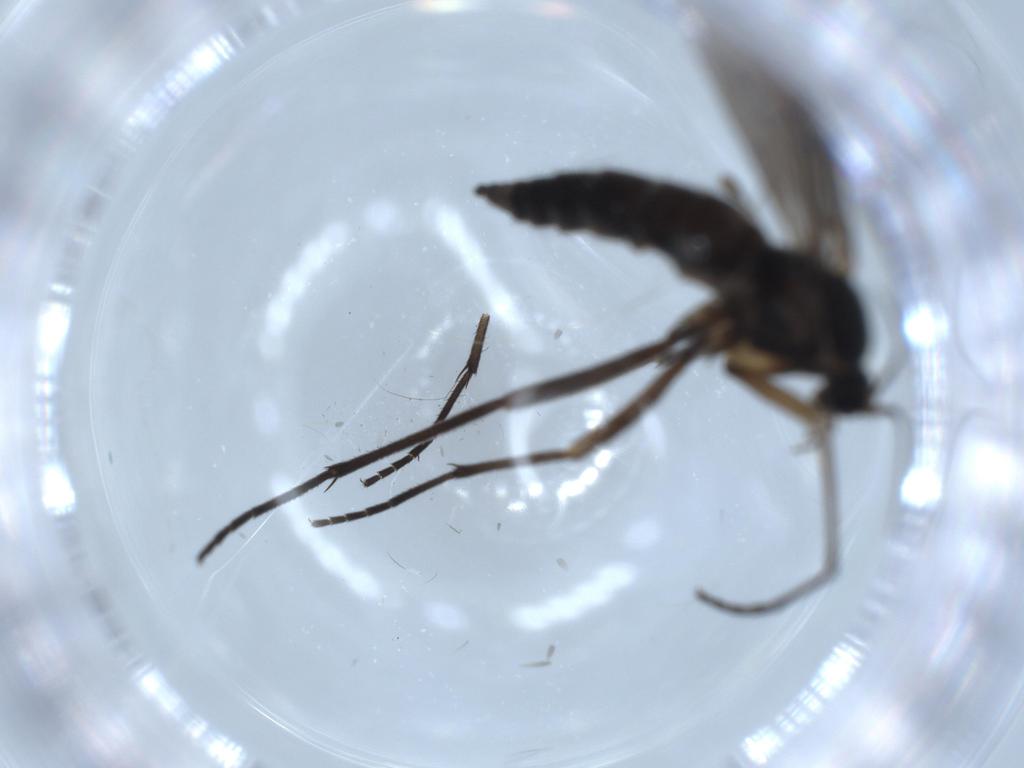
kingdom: Animalia
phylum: Arthropoda
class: Insecta
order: Diptera
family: Sciaridae
